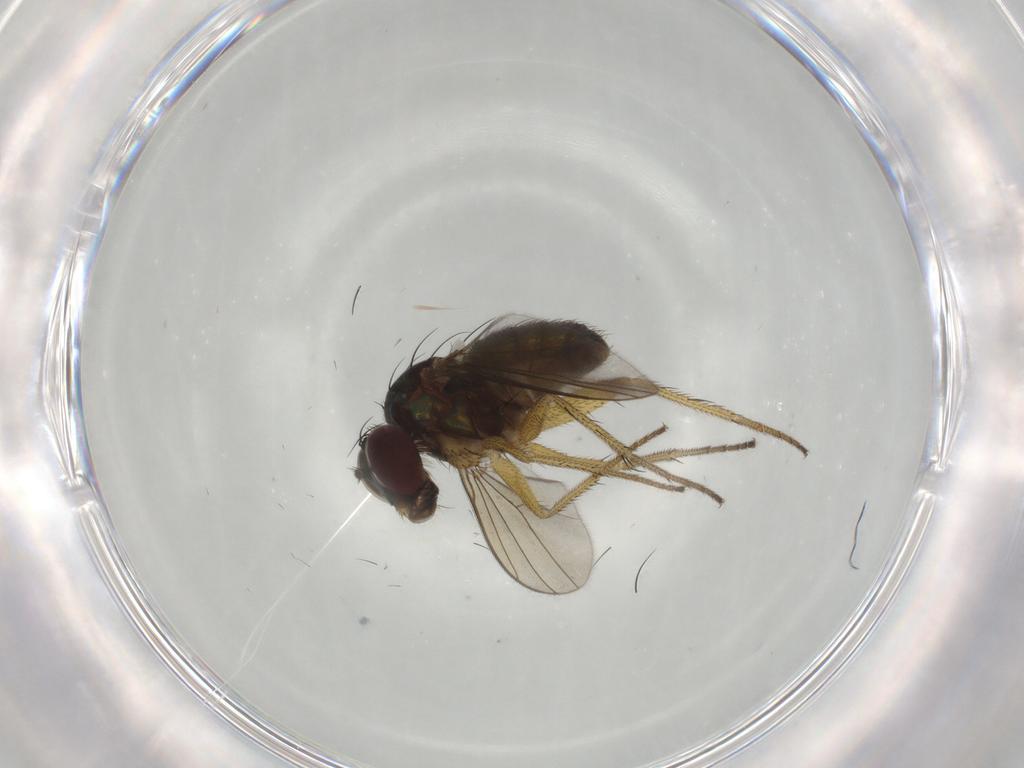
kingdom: Animalia
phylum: Arthropoda
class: Insecta
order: Diptera
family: Dolichopodidae
